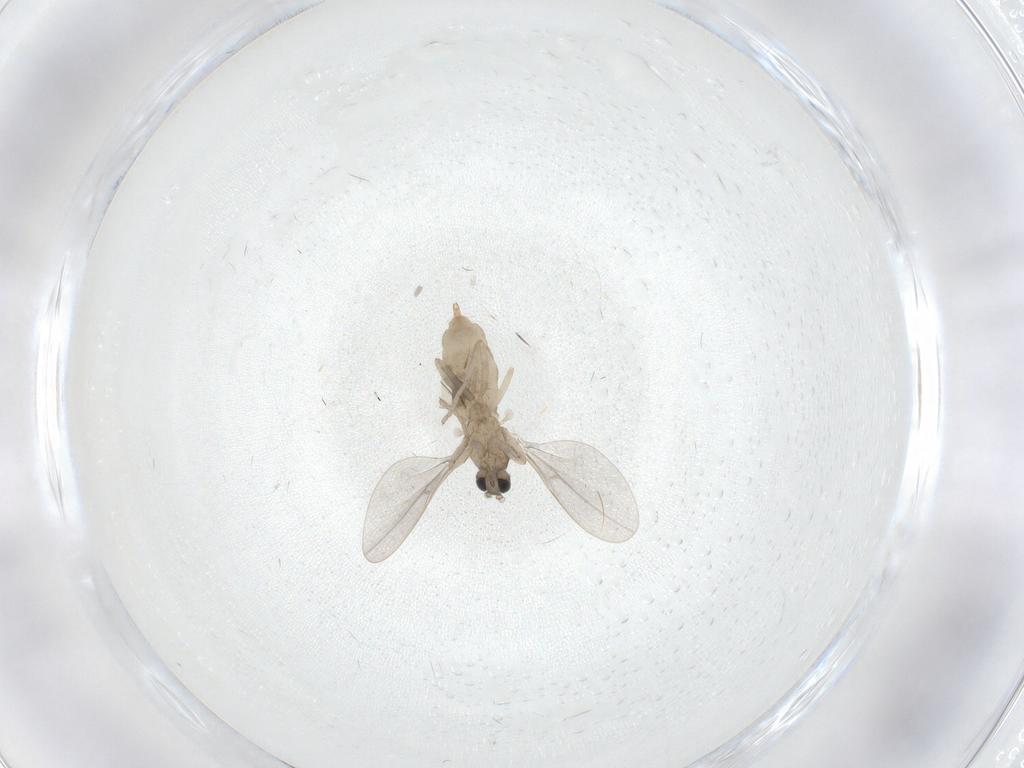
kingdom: Animalia
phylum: Arthropoda
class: Insecta
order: Diptera
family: Cecidomyiidae
